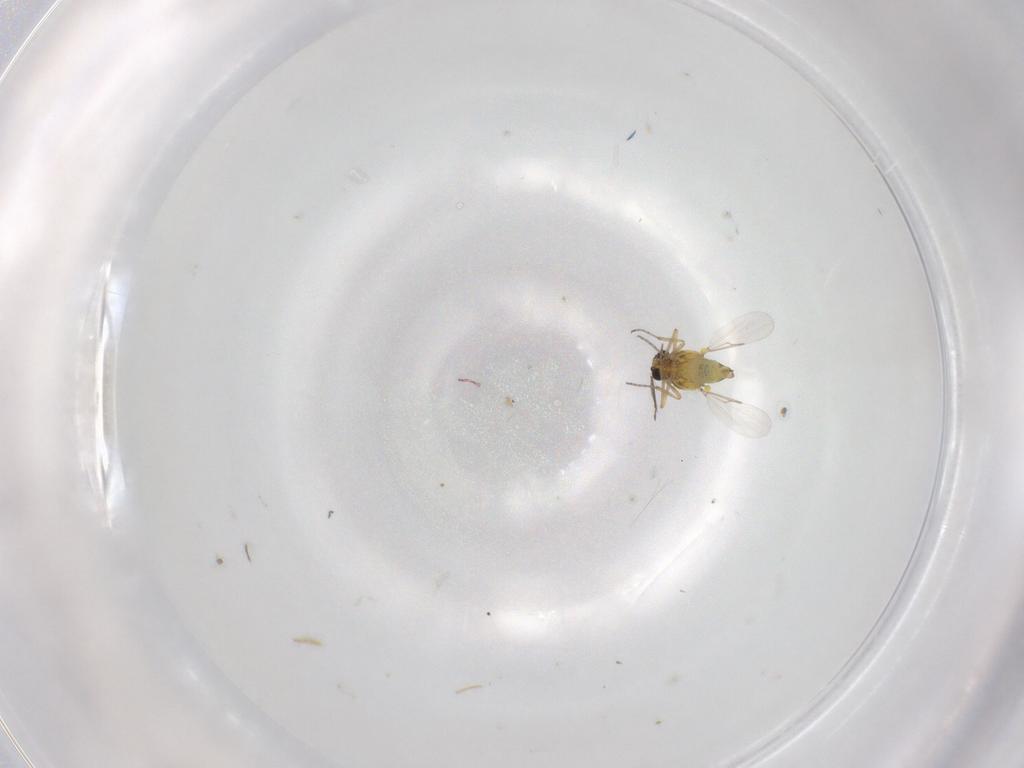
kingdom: Animalia
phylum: Arthropoda
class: Insecta
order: Diptera
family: Ceratopogonidae
